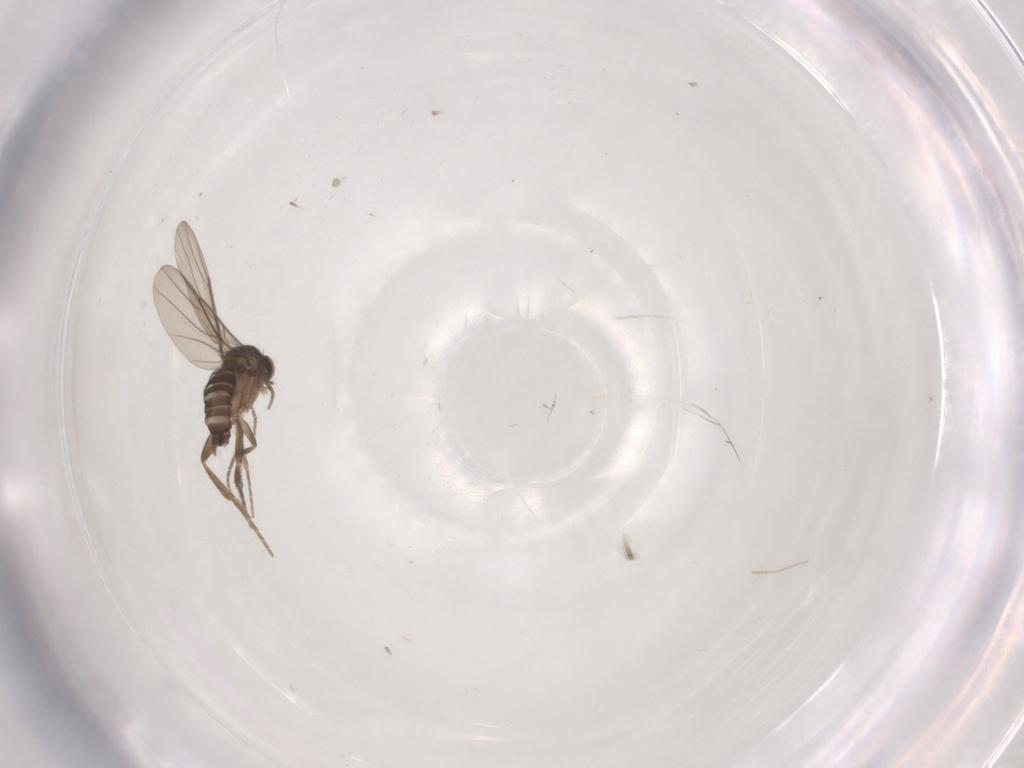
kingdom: Animalia
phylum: Arthropoda
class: Insecta
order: Diptera
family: Phoridae
